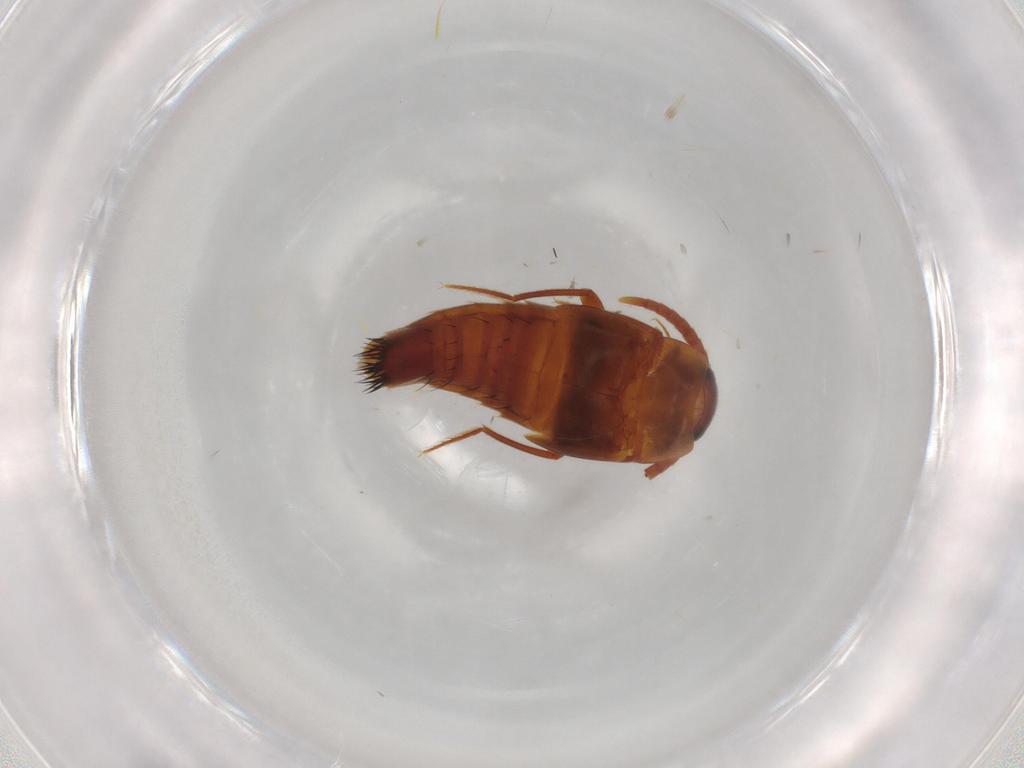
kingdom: Animalia
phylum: Arthropoda
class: Insecta
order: Coleoptera
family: Staphylinidae
